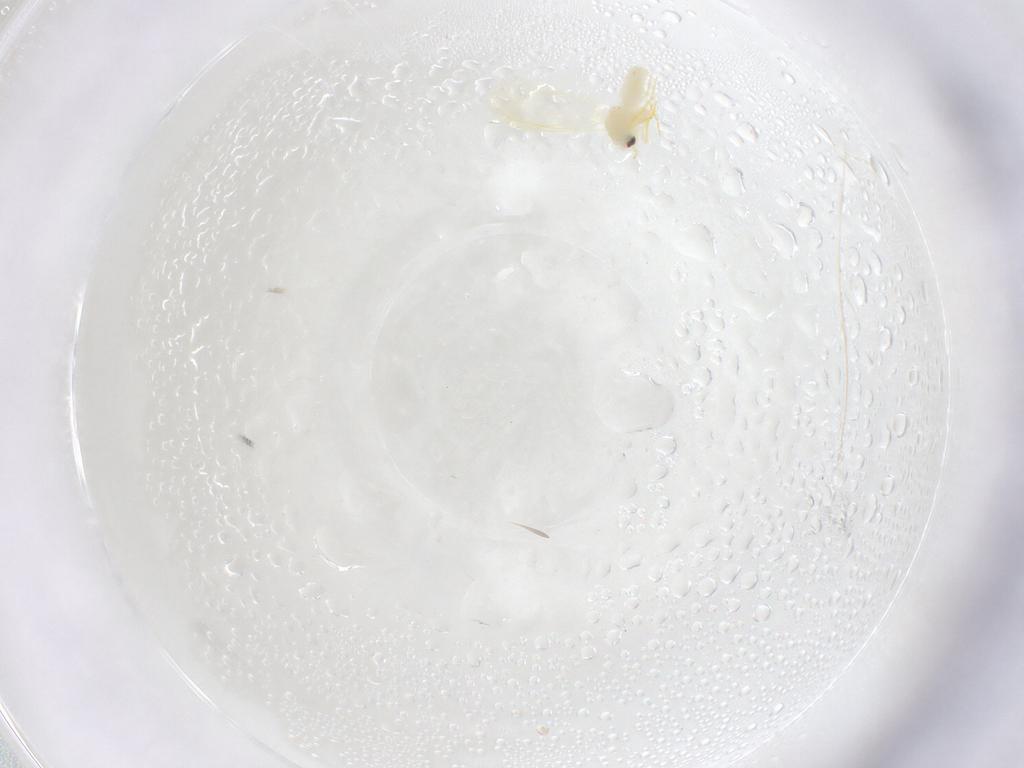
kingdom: Animalia
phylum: Arthropoda
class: Insecta
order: Hemiptera
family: Aleyrodidae
